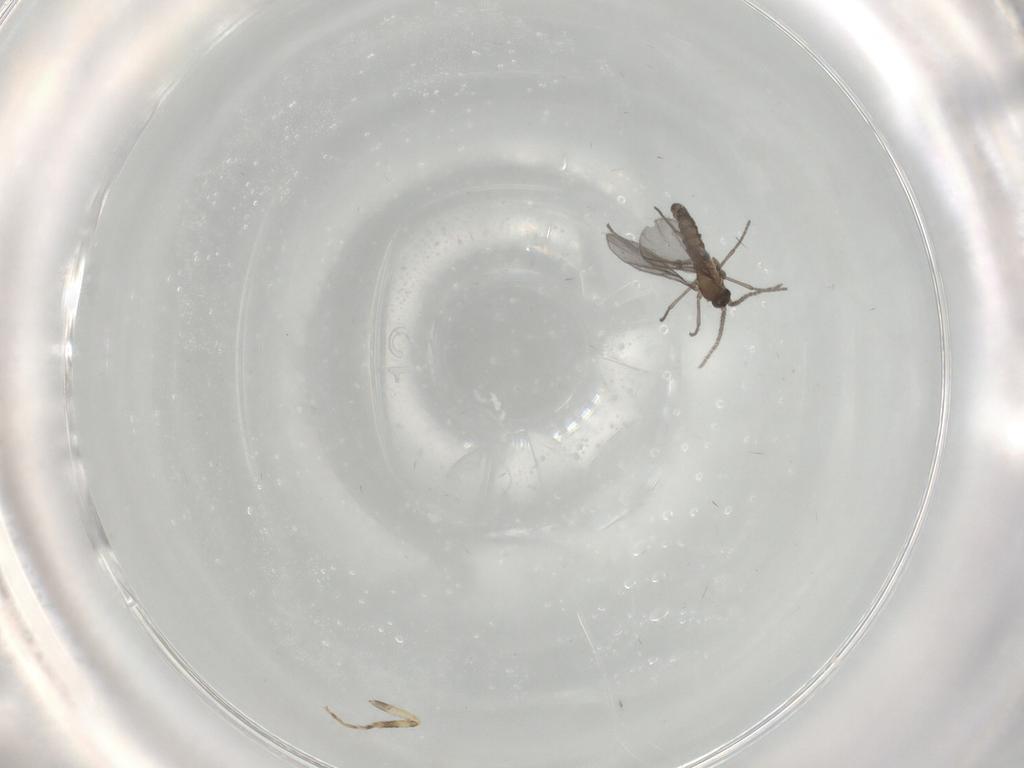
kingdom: Animalia
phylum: Arthropoda
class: Insecta
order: Diptera
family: Sciaridae
